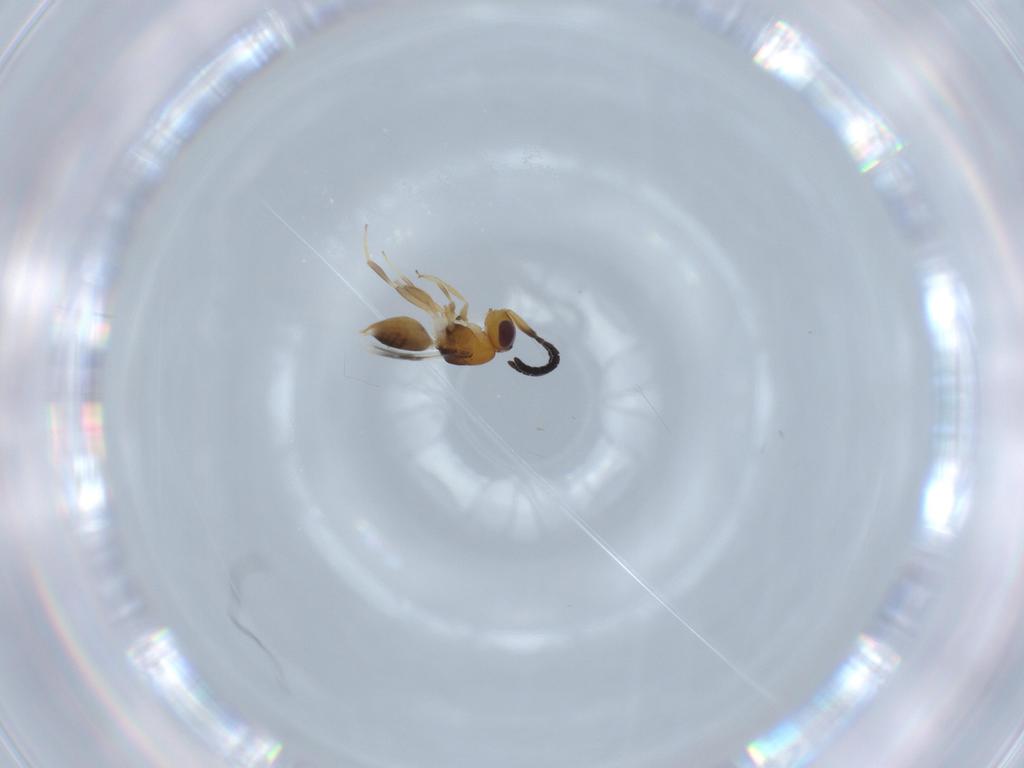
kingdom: Animalia
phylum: Arthropoda
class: Insecta
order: Hymenoptera
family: Megaspilidae
